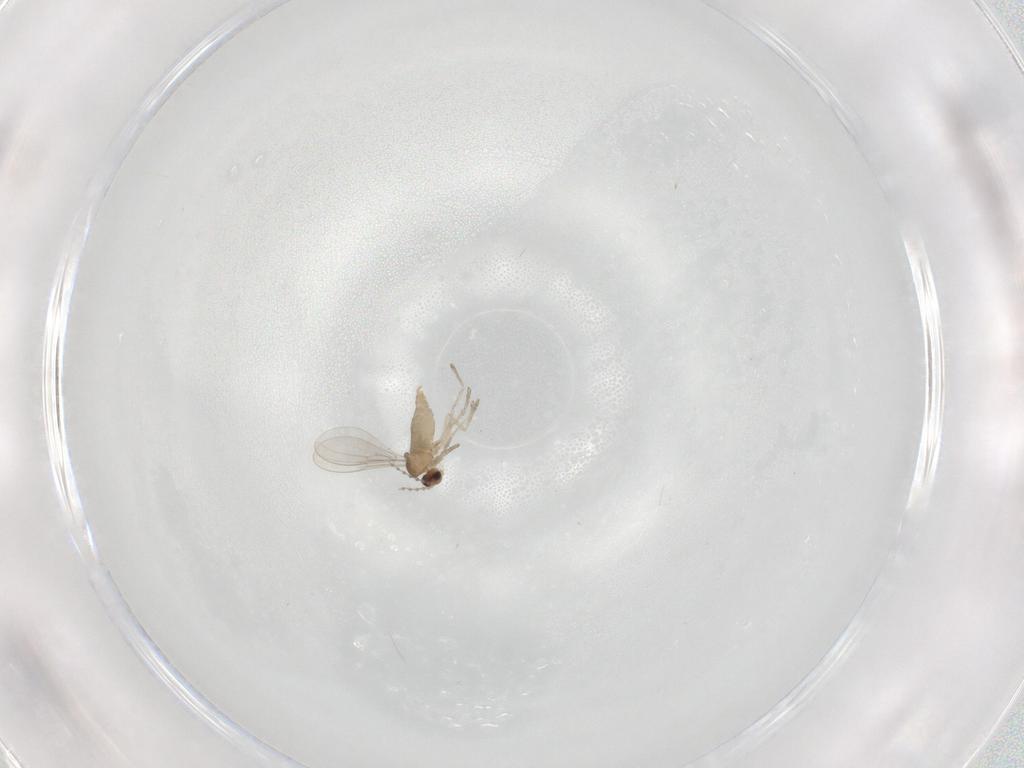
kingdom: Animalia
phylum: Arthropoda
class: Insecta
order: Diptera
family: Cecidomyiidae
